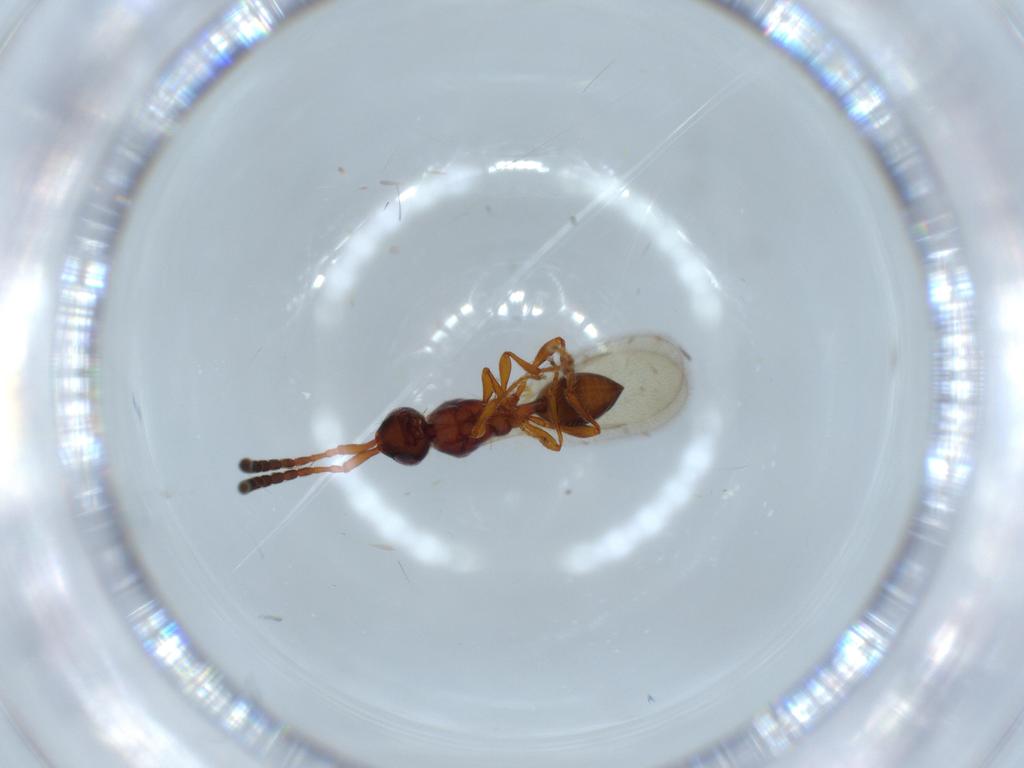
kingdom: Animalia
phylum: Arthropoda
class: Insecta
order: Hymenoptera
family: Diapriidae
